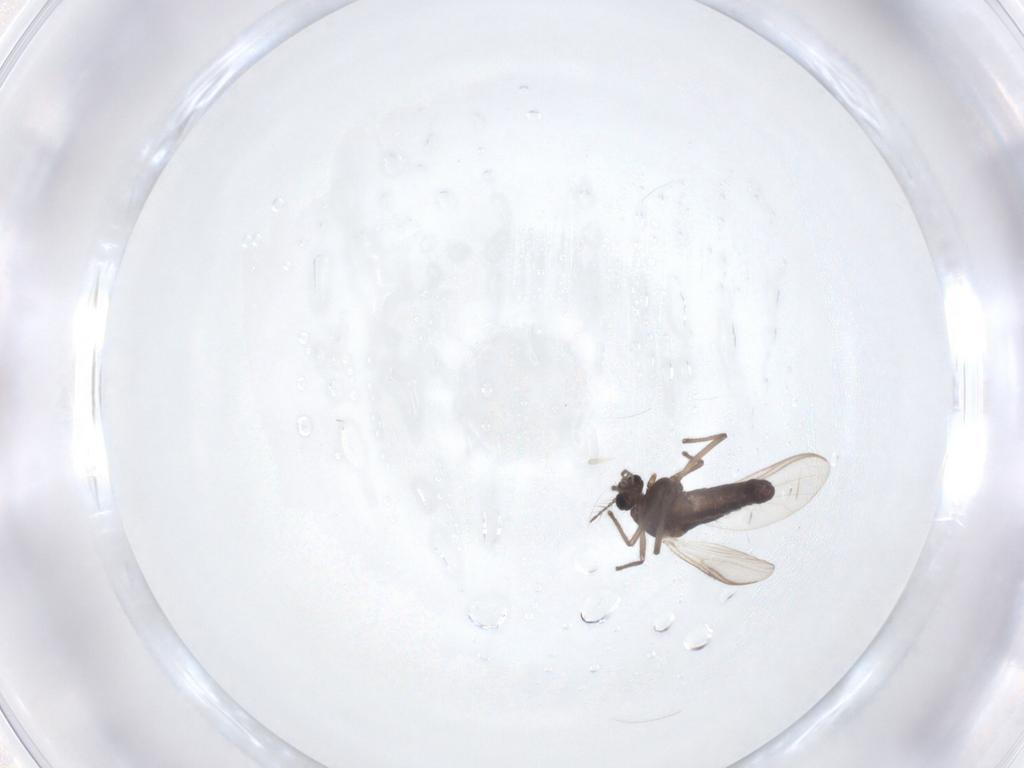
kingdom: Animalia
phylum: Arthropoda
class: Insecta
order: Diptera
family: Chironomidae
